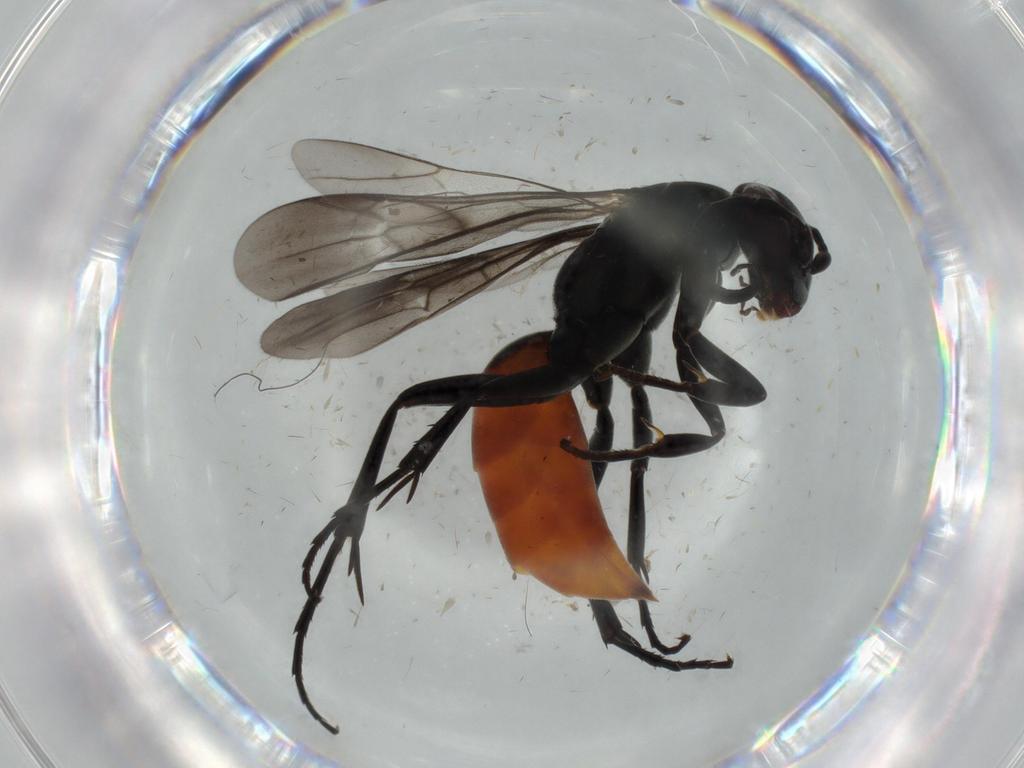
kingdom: Animalia
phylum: Arthropoda
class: Insecta
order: Hymenoptera
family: Pompilidae
